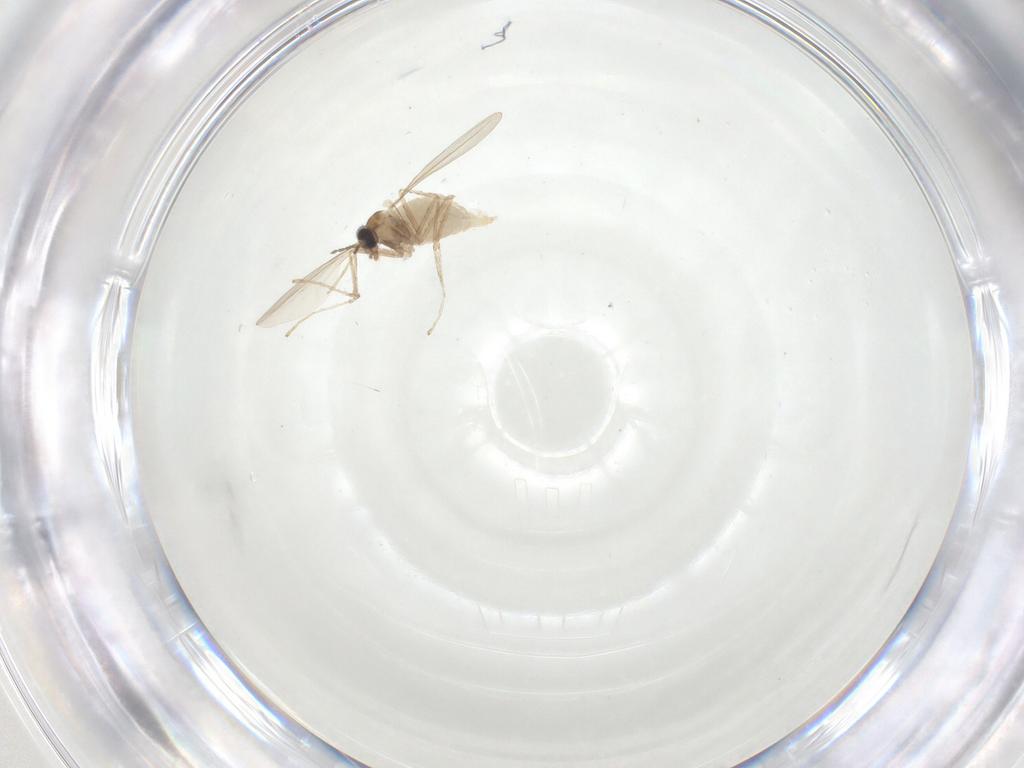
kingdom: Animalia
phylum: Arthropoda
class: Insecta
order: Diptera
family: Cecidomyiidae
